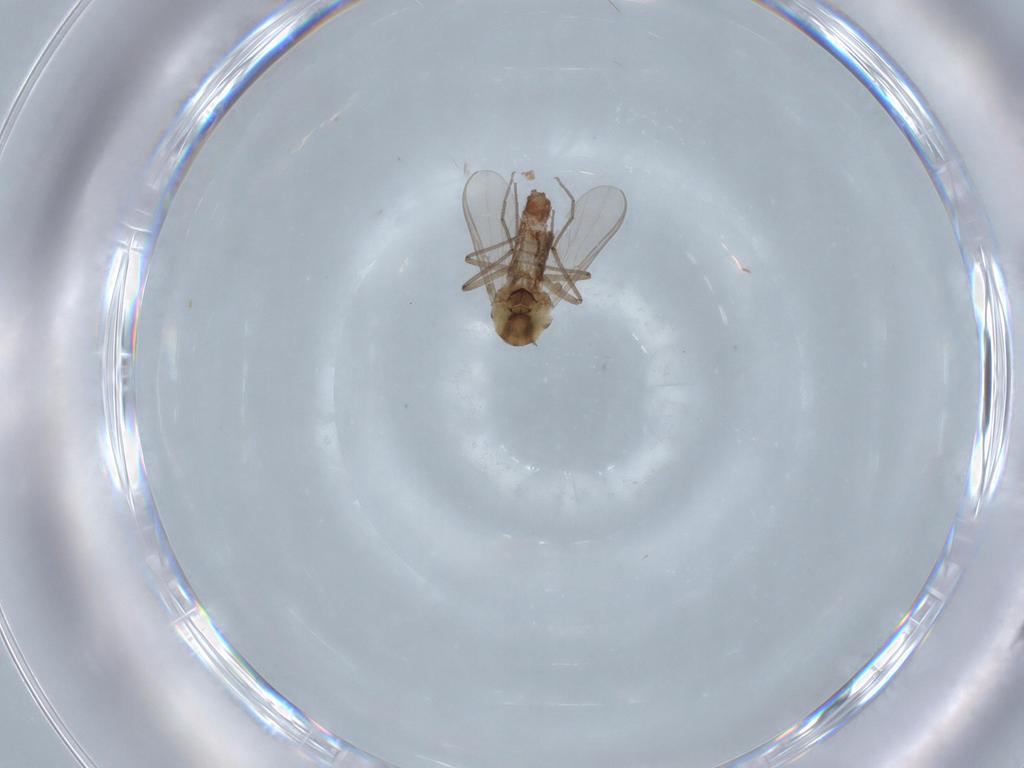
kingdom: Animalia
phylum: Arthropoda
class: Insecta
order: Diptera
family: Chironomidae
